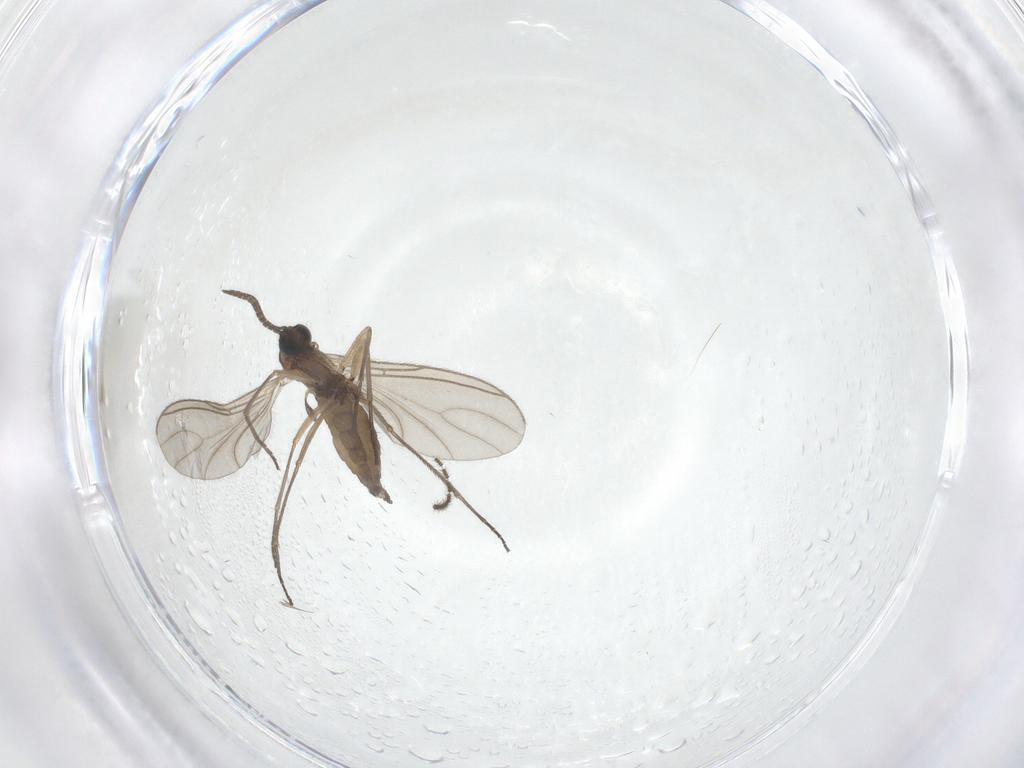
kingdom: Animalia
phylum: Arthropoda
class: Insecta
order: Diptera
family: Sciaridae
